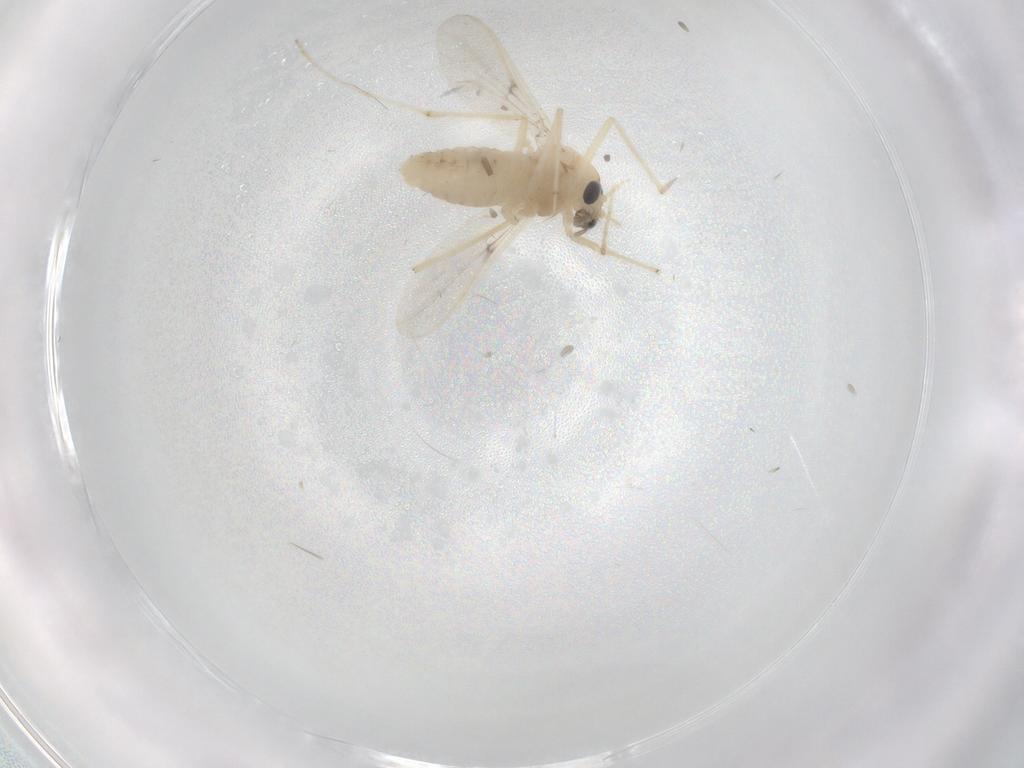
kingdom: Animalia
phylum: Arthropoda
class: Insecta
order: Diptera
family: Chironomidae
